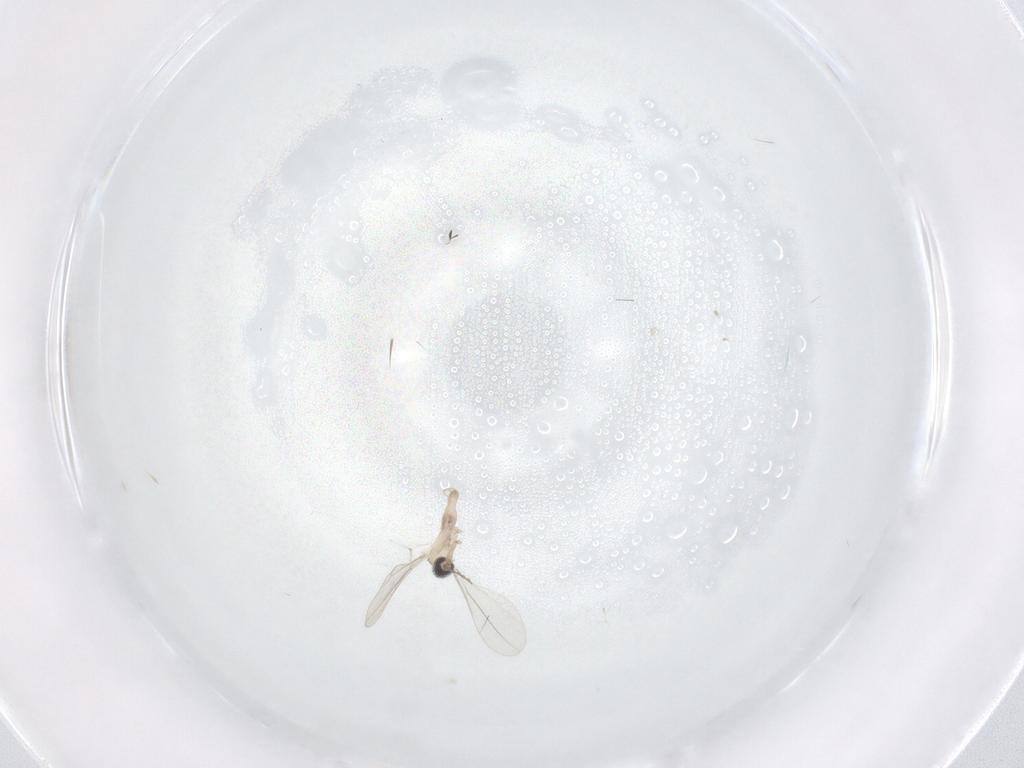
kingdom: Animalia
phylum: Arthropoda
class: Insecta
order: Diptera
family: Cecidomyiidae
